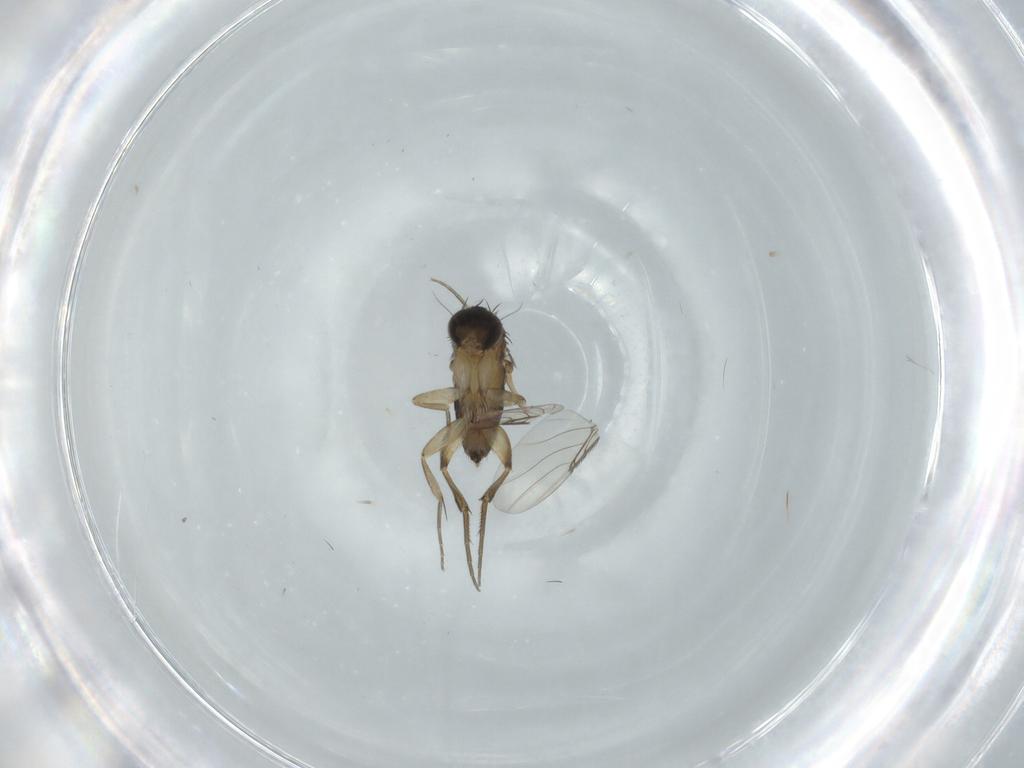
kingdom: Animalia
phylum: Arthropoda
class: Insecta
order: Diptera
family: Phoridae
